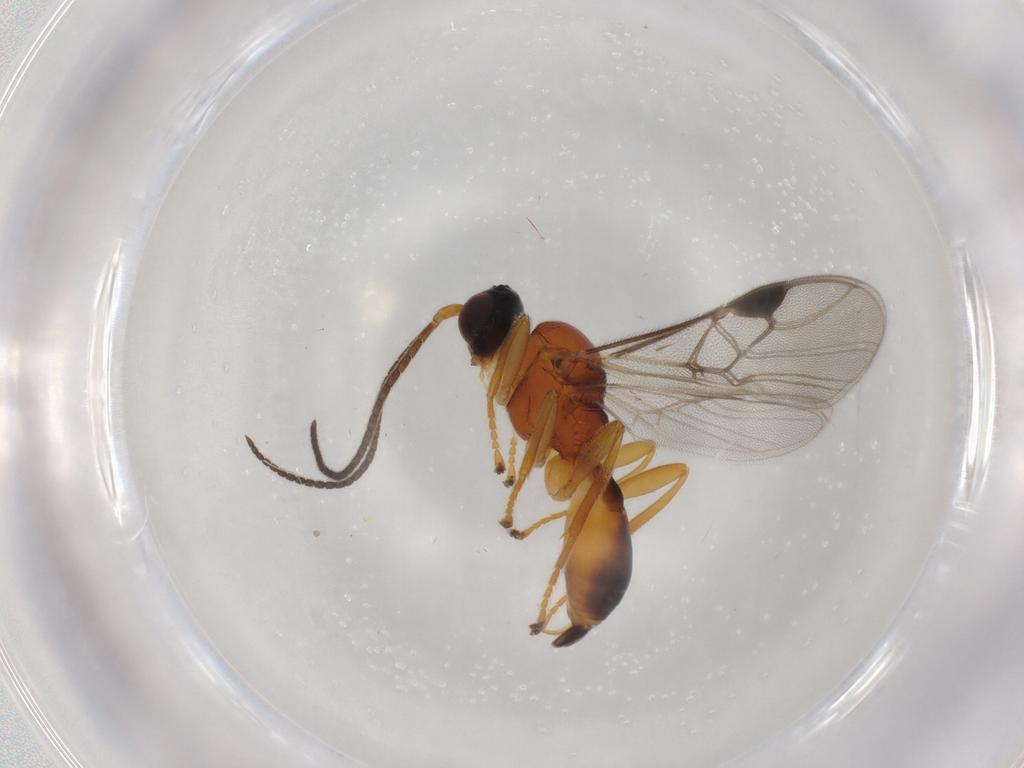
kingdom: Animalia
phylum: Arthropoda
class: Insecta
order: Hymenoptera
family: Braconidae
